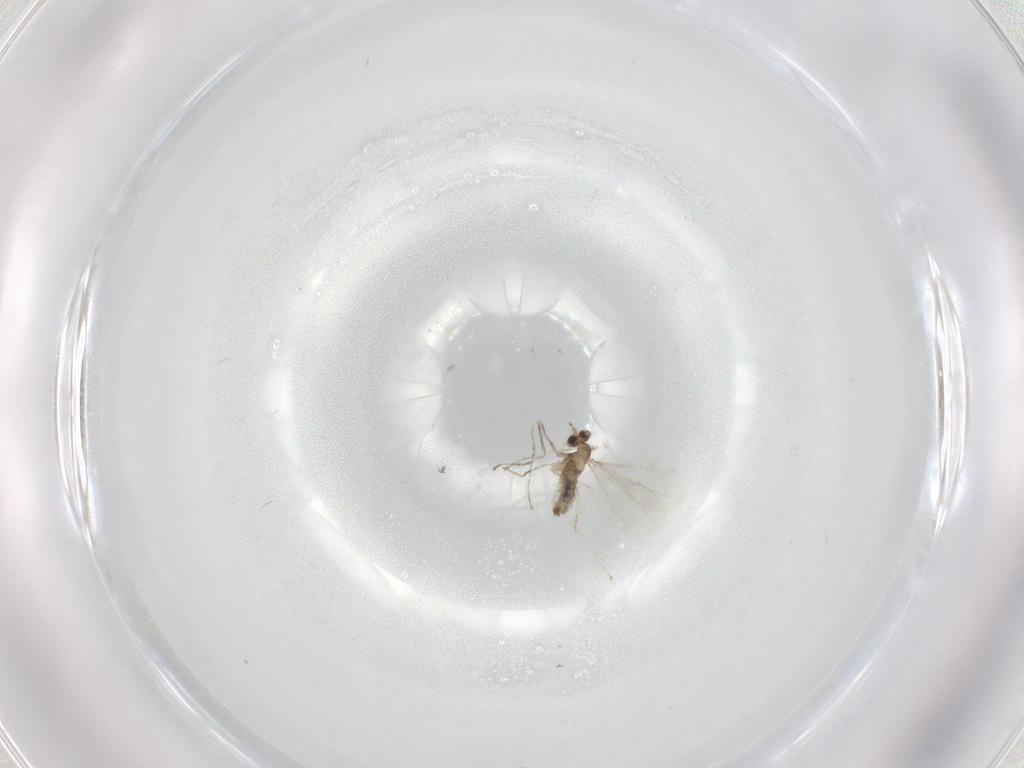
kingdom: Animalia
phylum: Arthropoda
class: Insecta
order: Diptera
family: Cecidomyiidae
